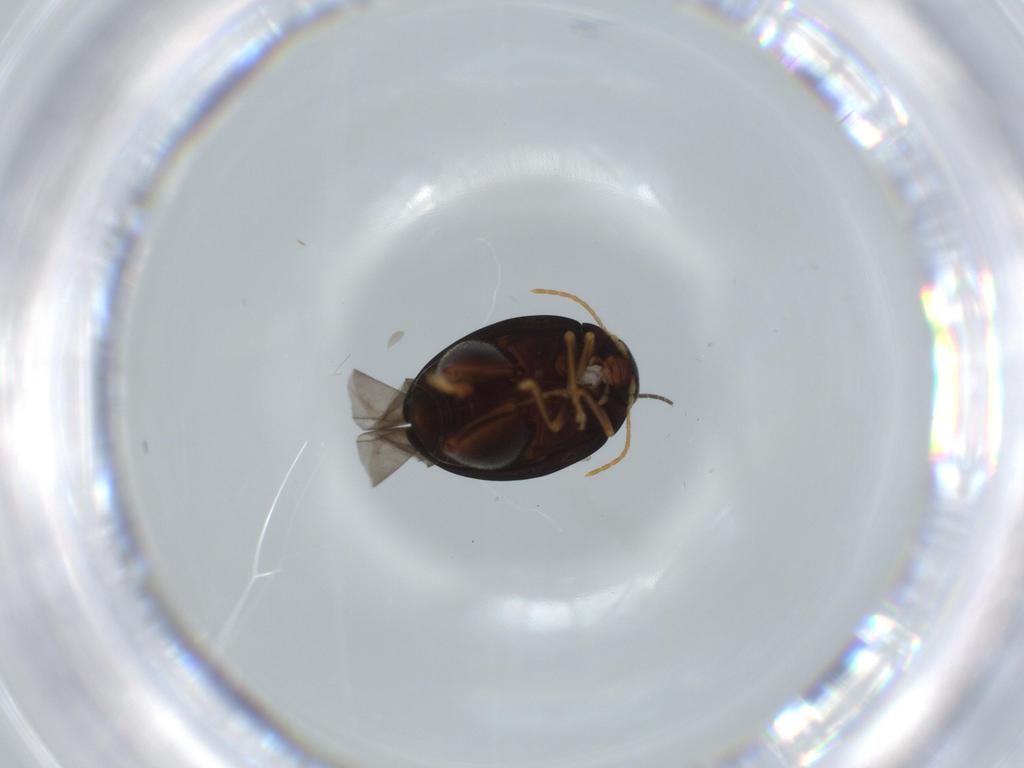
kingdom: Animalia
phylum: Arthropoda
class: Insecta
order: Coleoptera
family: Chrysomelidae
